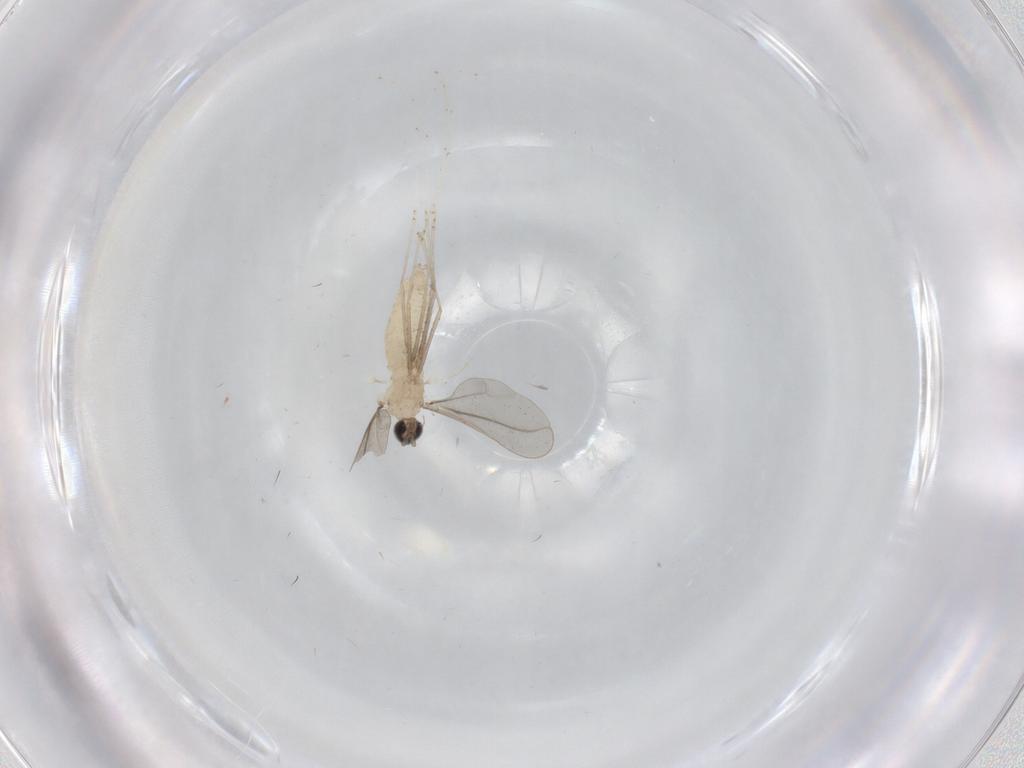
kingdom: Animalia
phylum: Arthropoda
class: Insecta
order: Diptera
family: Cecidomyiidae
